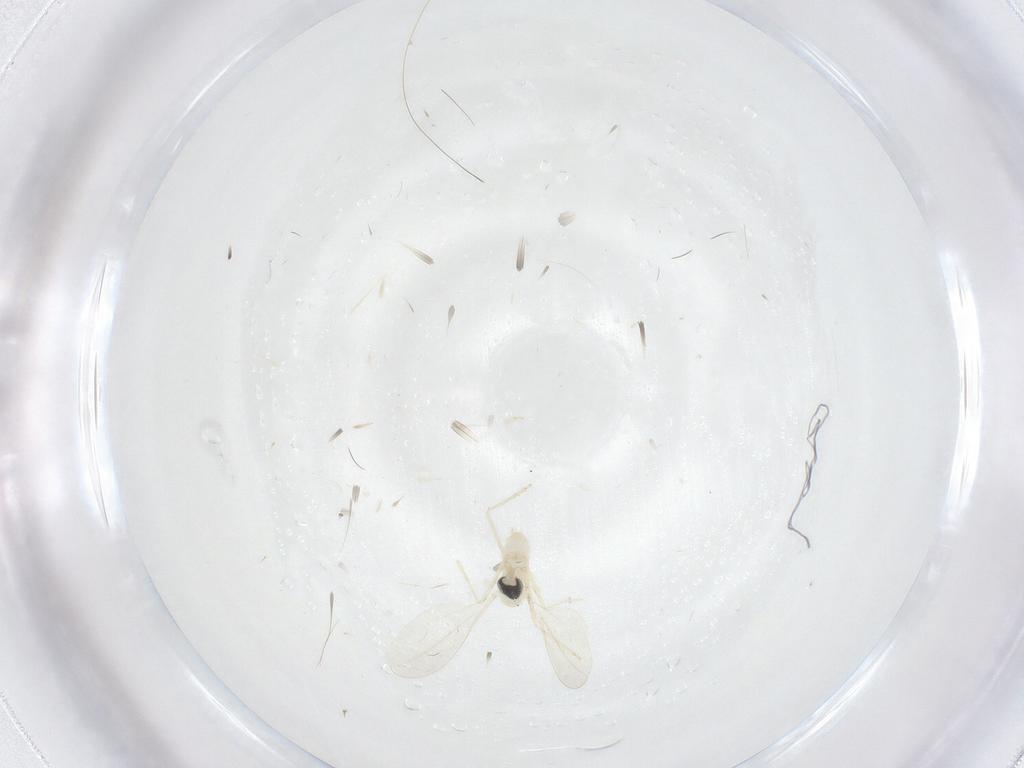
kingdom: Animalia
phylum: Arthropoda
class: Insecta
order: Diptera
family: Cecidomyiidae
